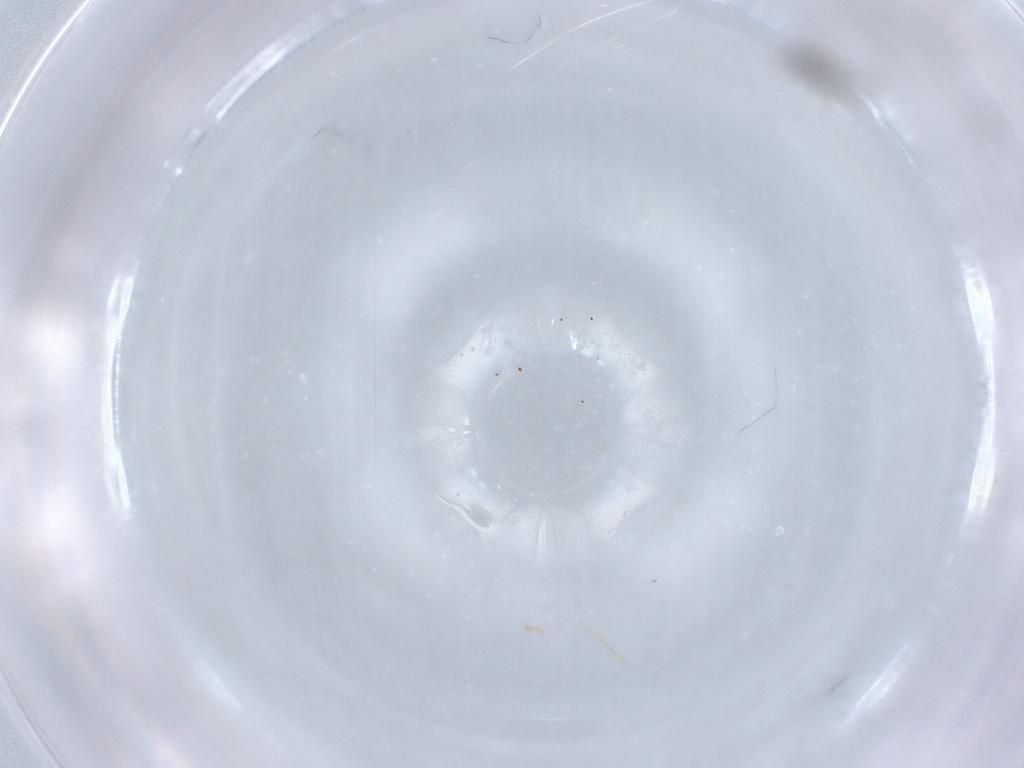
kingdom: Animalia
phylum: Arthropoda
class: Insecta
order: Diptera
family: Cecidomyiidae
